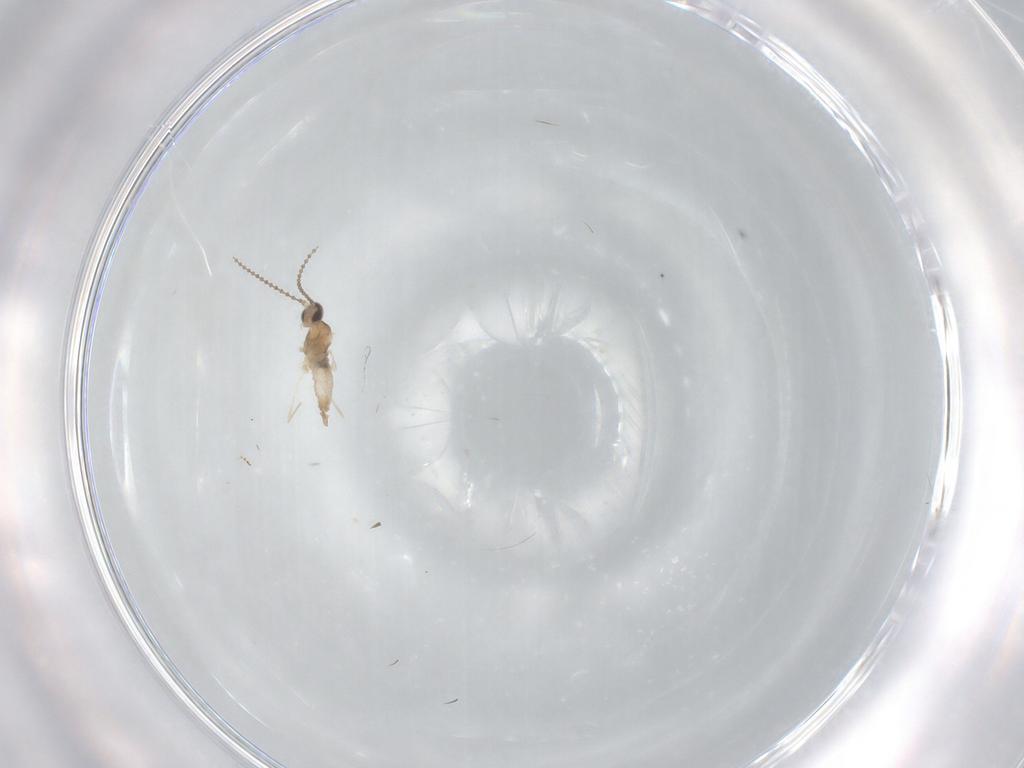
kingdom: Animalia
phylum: Arthropoda
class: Insecta
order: Diptera
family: Cecidomyiidae
